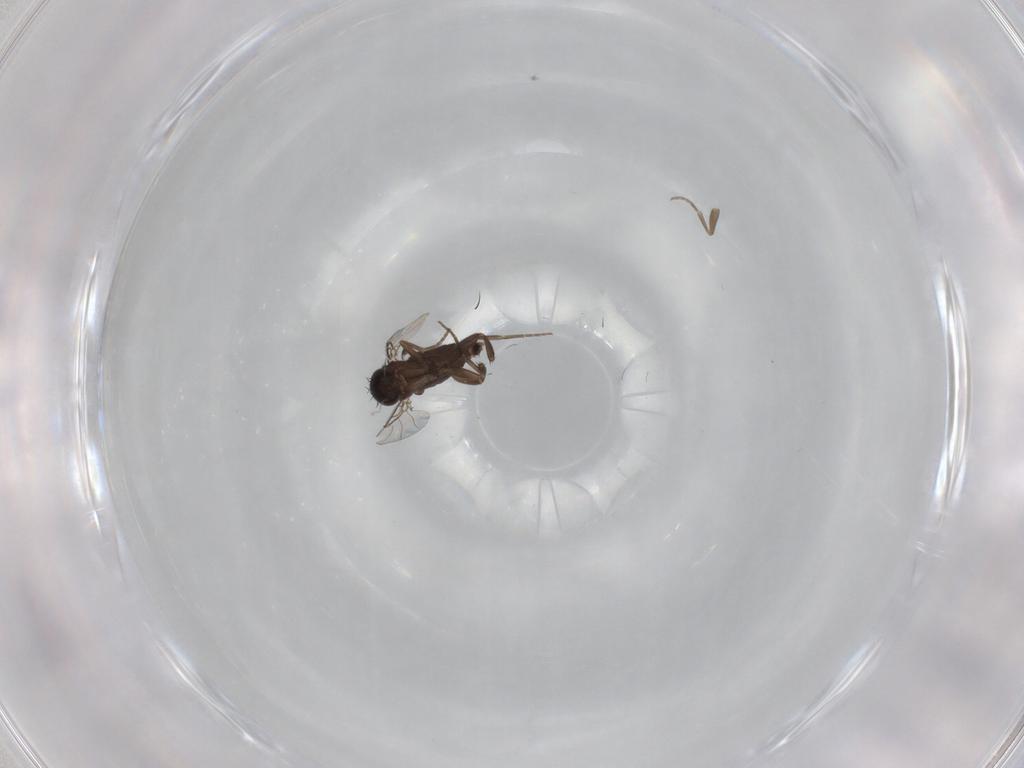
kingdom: Animalia
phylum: Arthropoda
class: Insecta
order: Diptera
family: Phoridae
